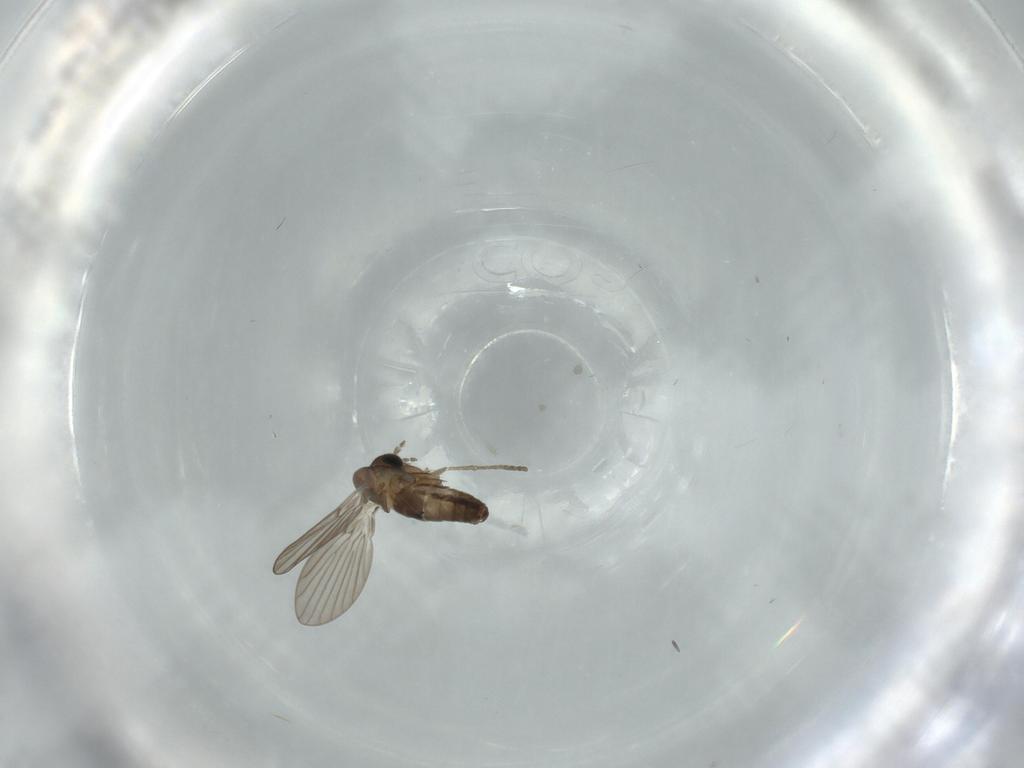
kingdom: Animalia
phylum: Arthropoda
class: Insecta
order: Diptera
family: Psychodidae
